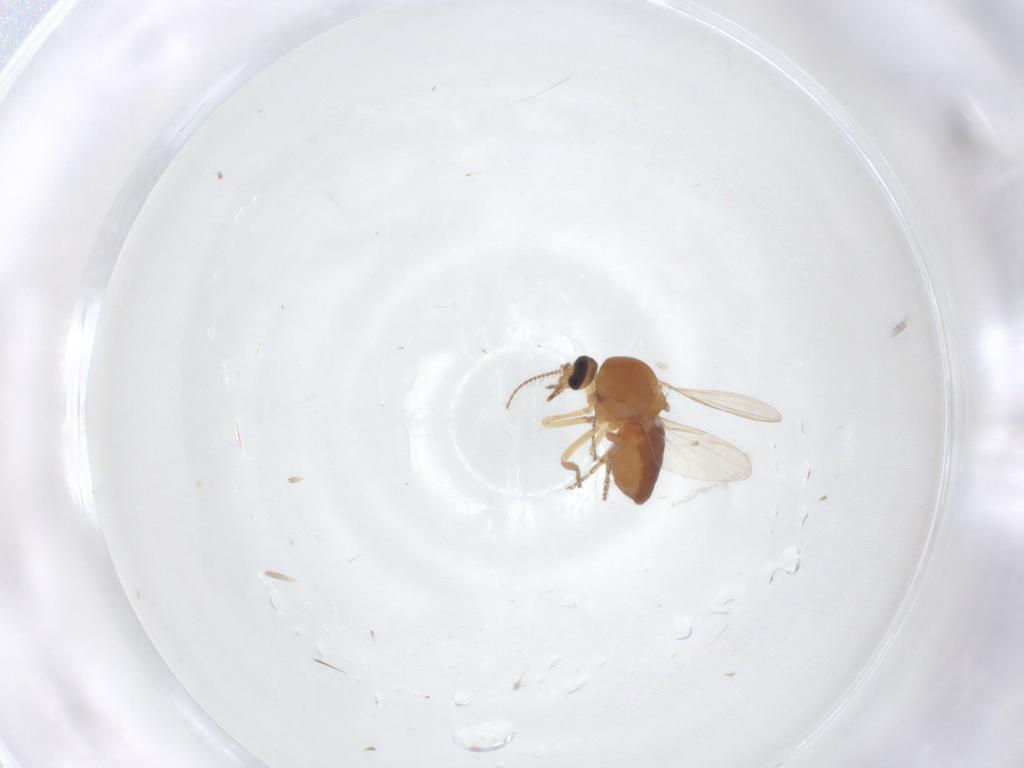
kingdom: Animalia
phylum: Arthropoda
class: Insecta
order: Diptera
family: Ceratopogonidae
